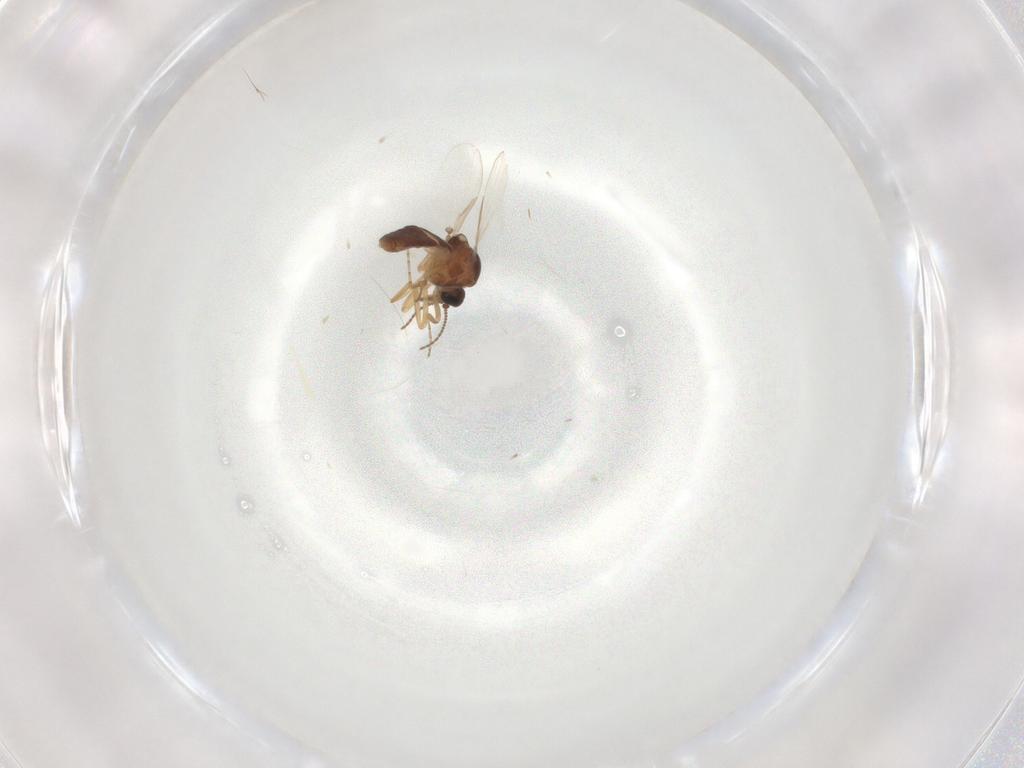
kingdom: Animalia
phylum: Arthropoda
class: Insecta
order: Diptera
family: Ceratopogonidae
